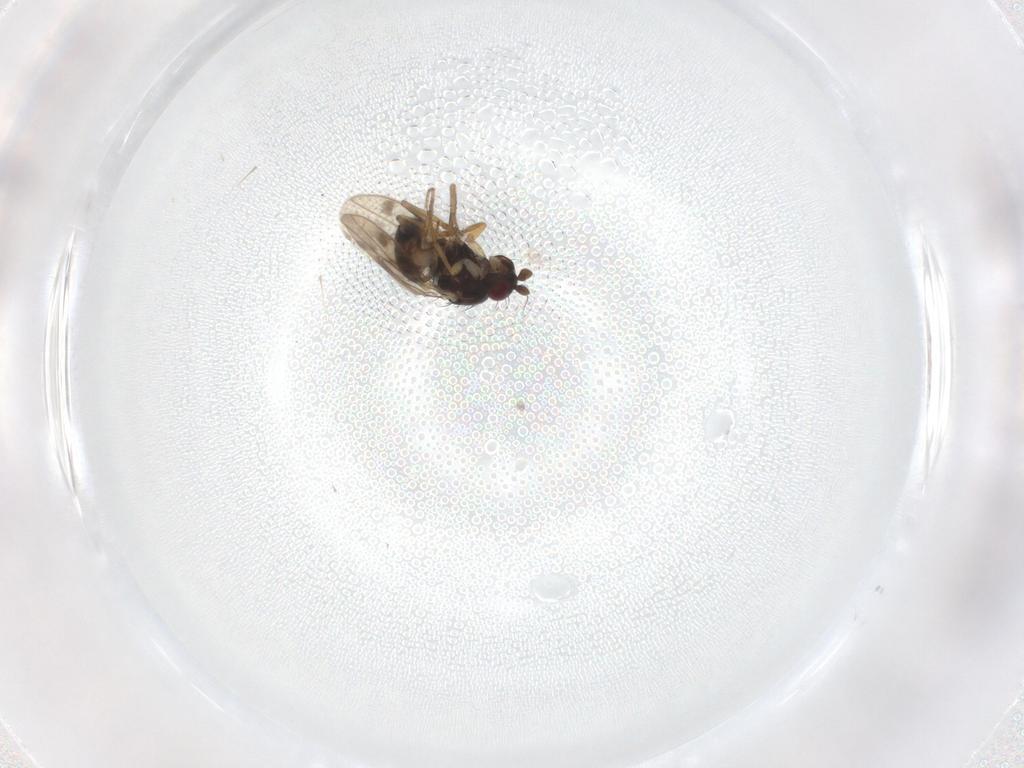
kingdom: Animalia
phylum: Arthropoda
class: Insecta
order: Diptera
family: Sphaeroceridae
